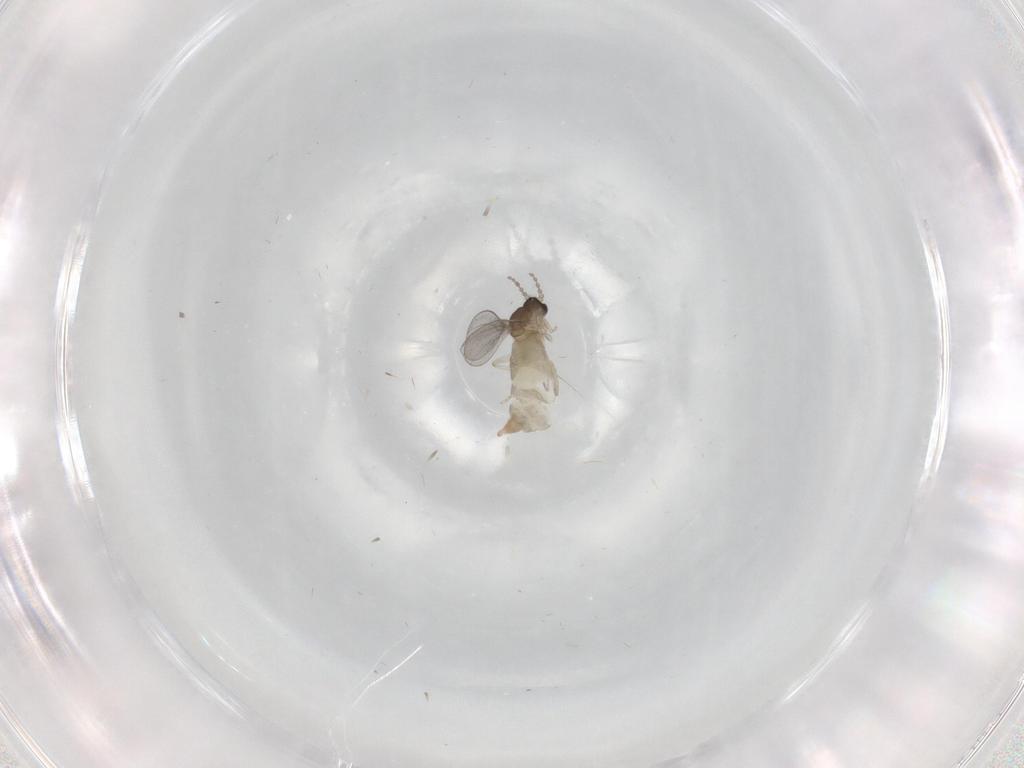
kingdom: Animalia
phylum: Arthropoda
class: Insecta
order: Diptera
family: Cecidomyiidae
